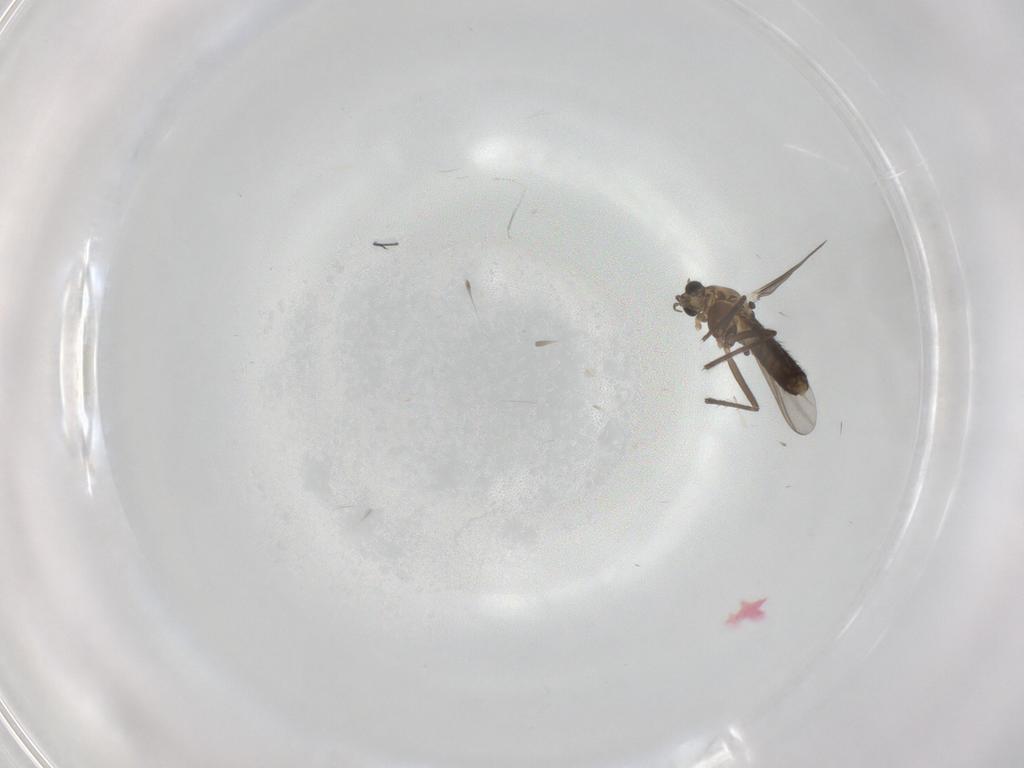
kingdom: Animalia
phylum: Arthropoda
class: Insecta
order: Diptera
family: Chironomidae
